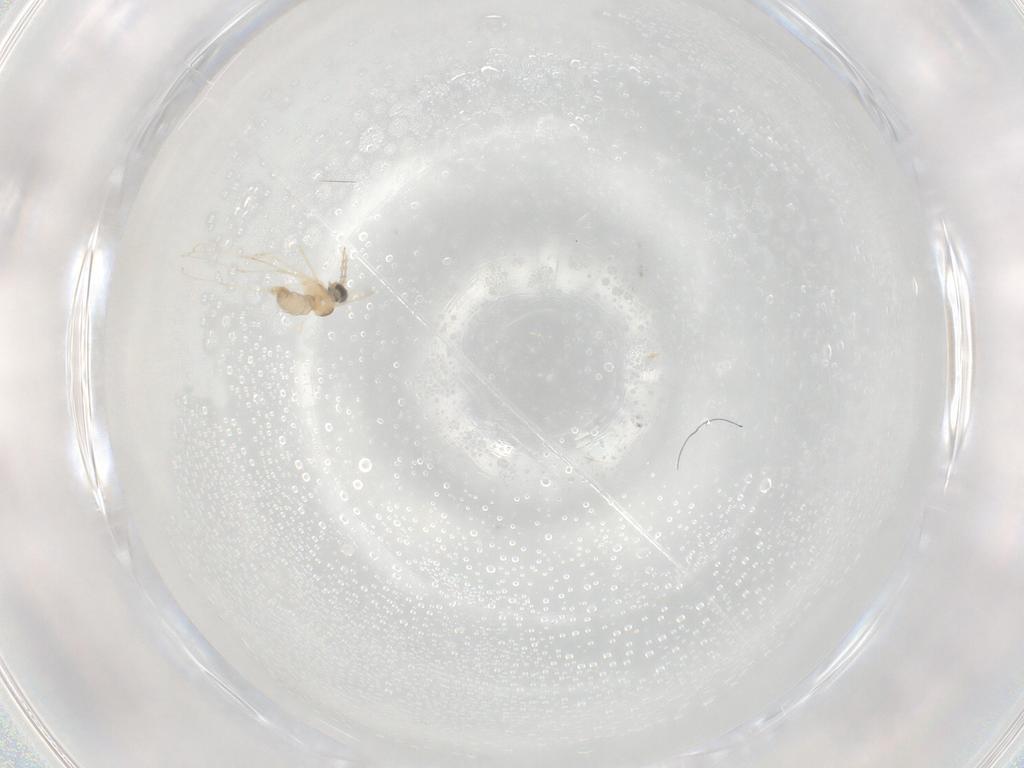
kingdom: Animalia
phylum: Arthropoda
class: Insecta
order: Diptera
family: Cecidomyiidae
